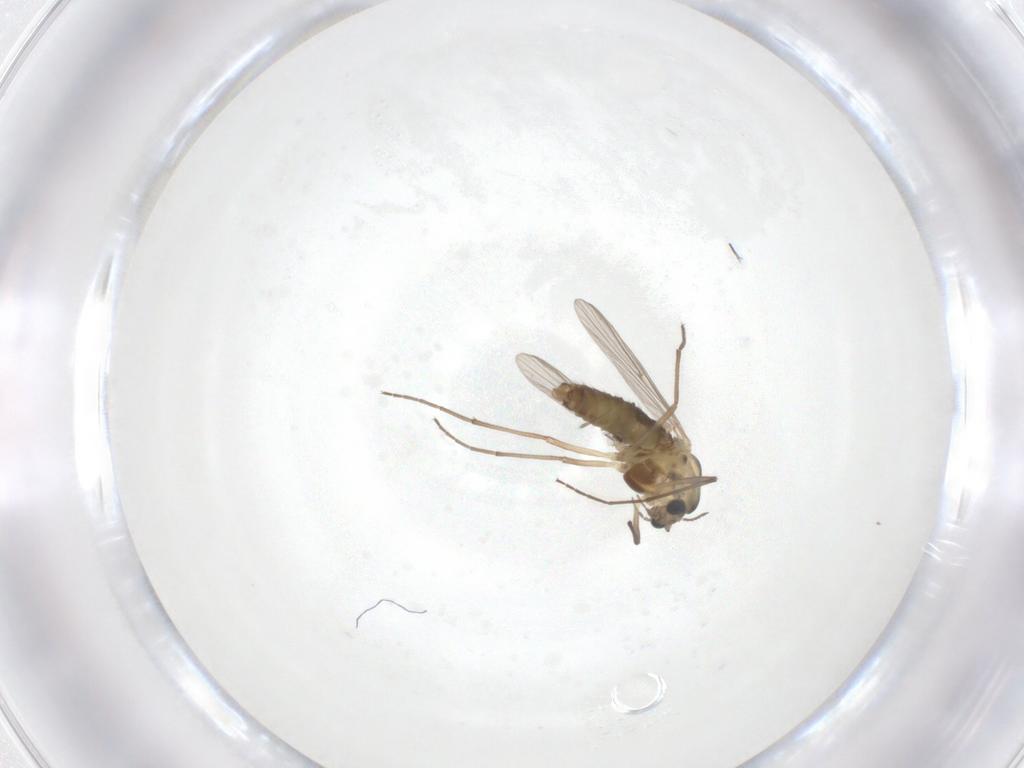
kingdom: Animalia
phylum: Arthropoda
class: Insecta
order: Diptera
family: Chironomidae
